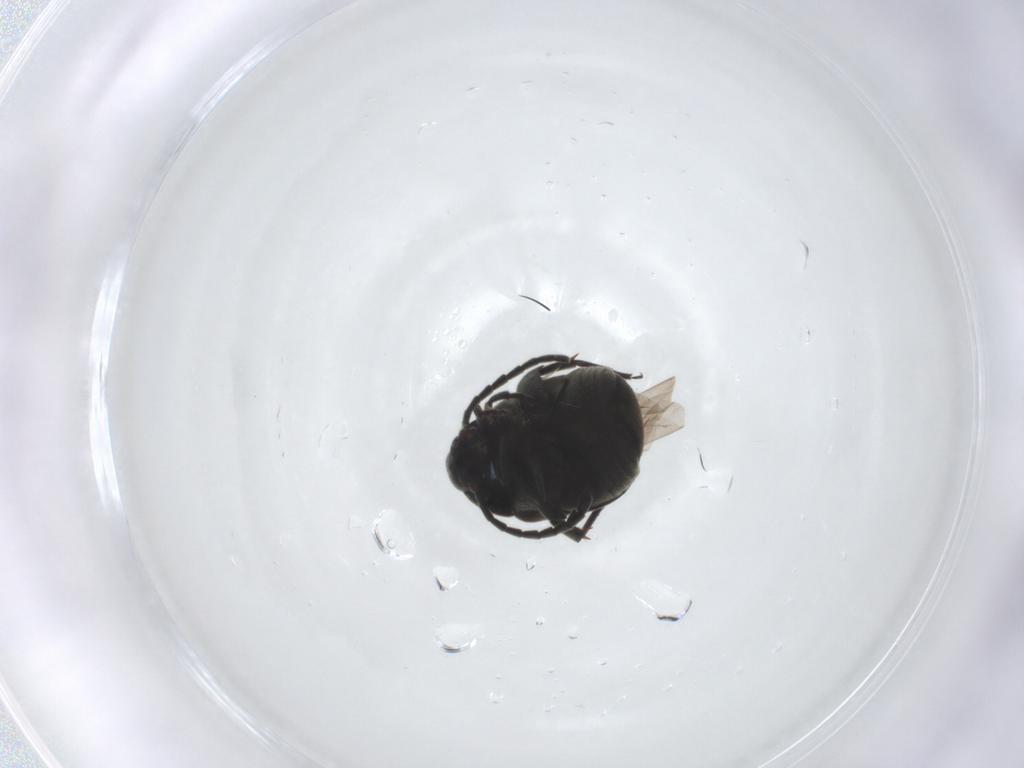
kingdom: Animalia
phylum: Arthropoda
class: Insecta
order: Coleoptera
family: Chrysomelidae
